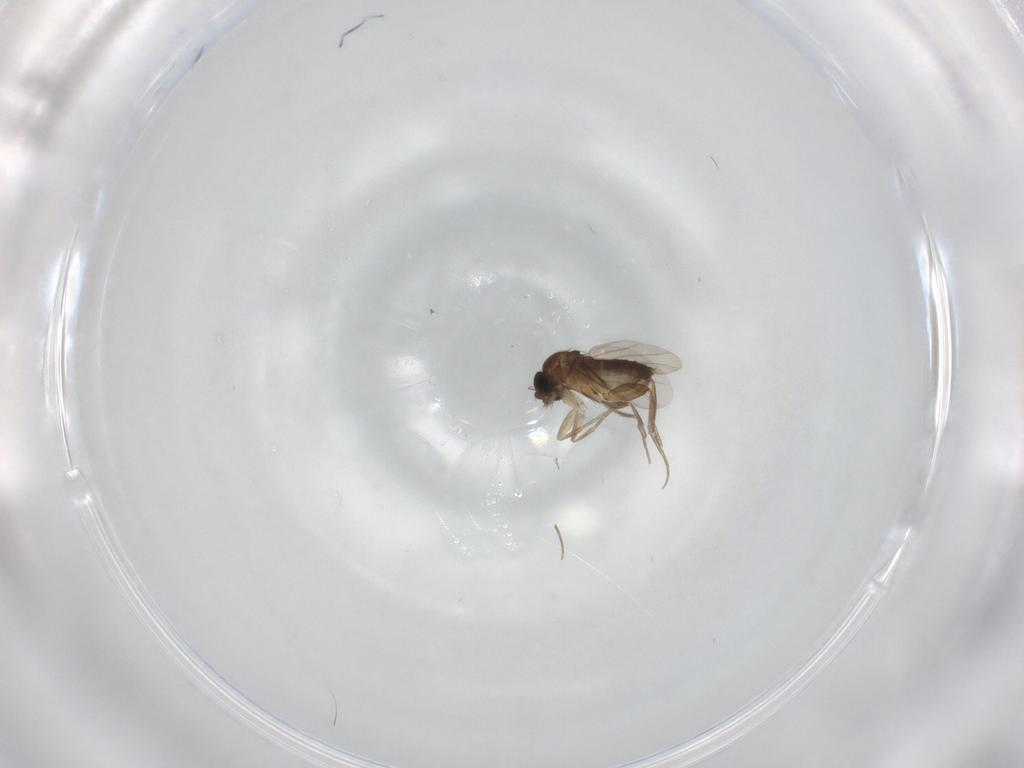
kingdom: Animalia
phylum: Arthropoda
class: Insecta
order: Diptera
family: Phoridae
